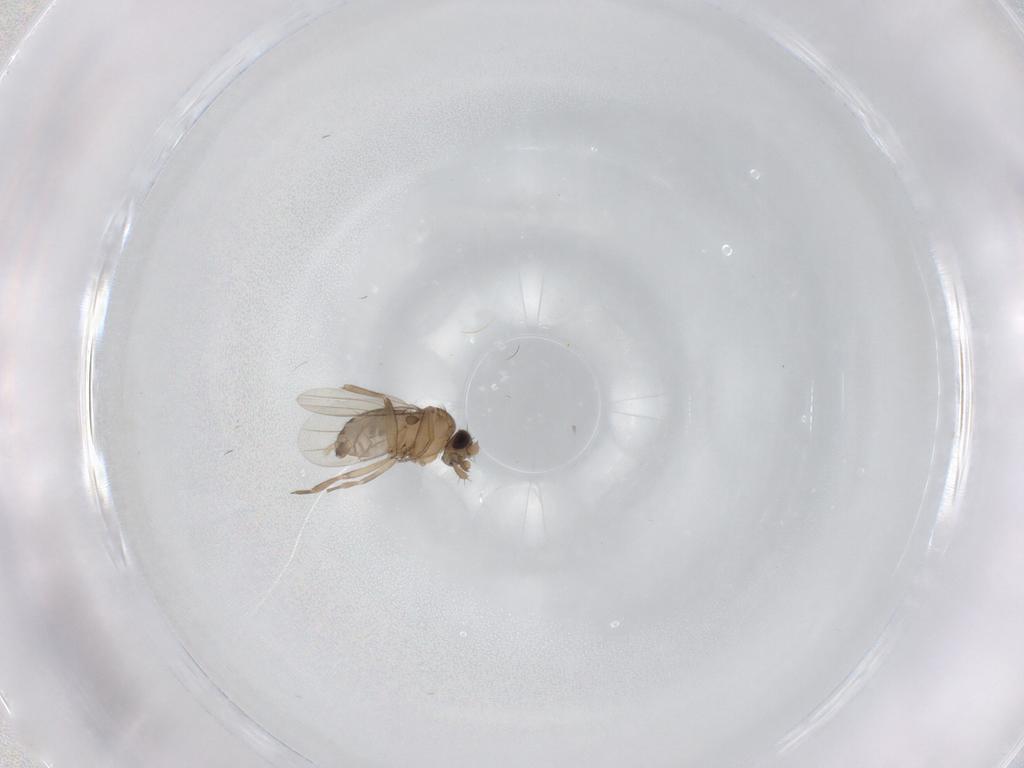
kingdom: Animalia
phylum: Arthropoda
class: Insecta
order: Diptera
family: Phoridae
